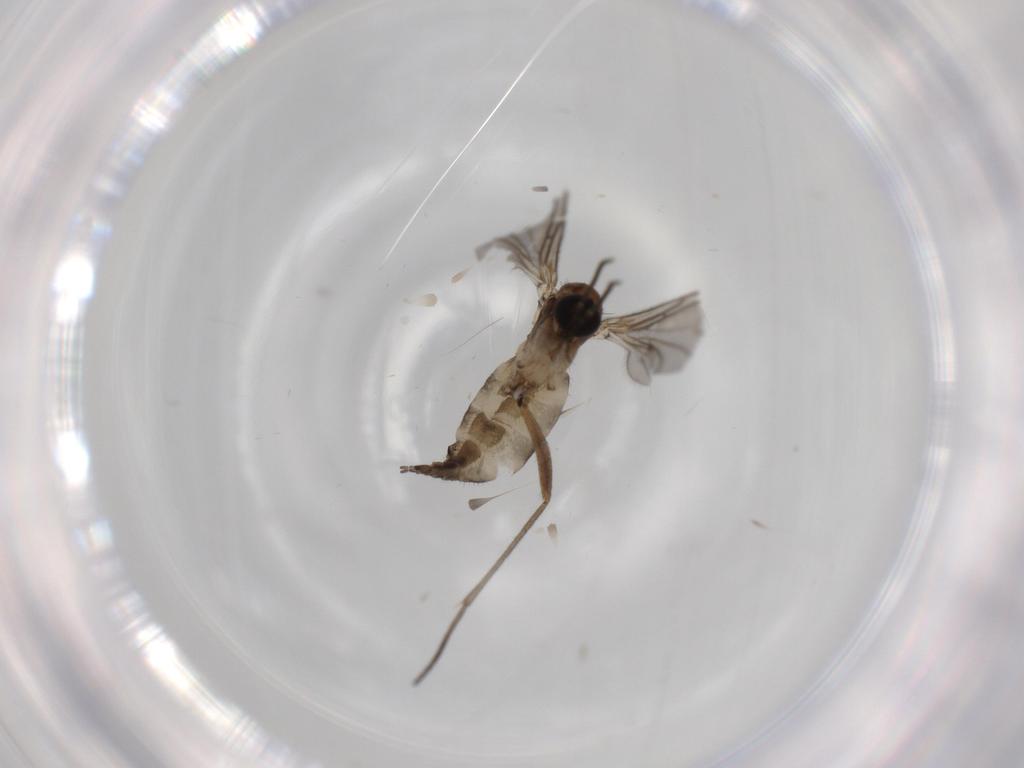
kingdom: Animalia
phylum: Arthropoda
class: Insecta
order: Diptera
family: Sciaridae
